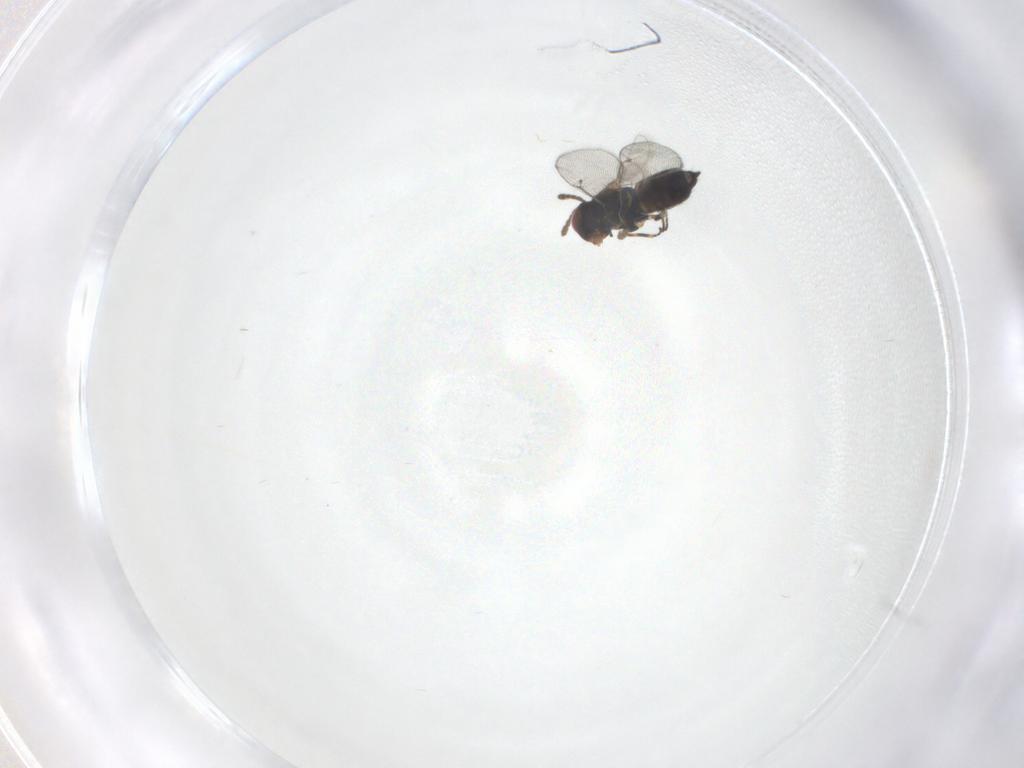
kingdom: Animalia
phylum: Arthropoda
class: Insecta
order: Hymenoptera
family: Eulophidae
